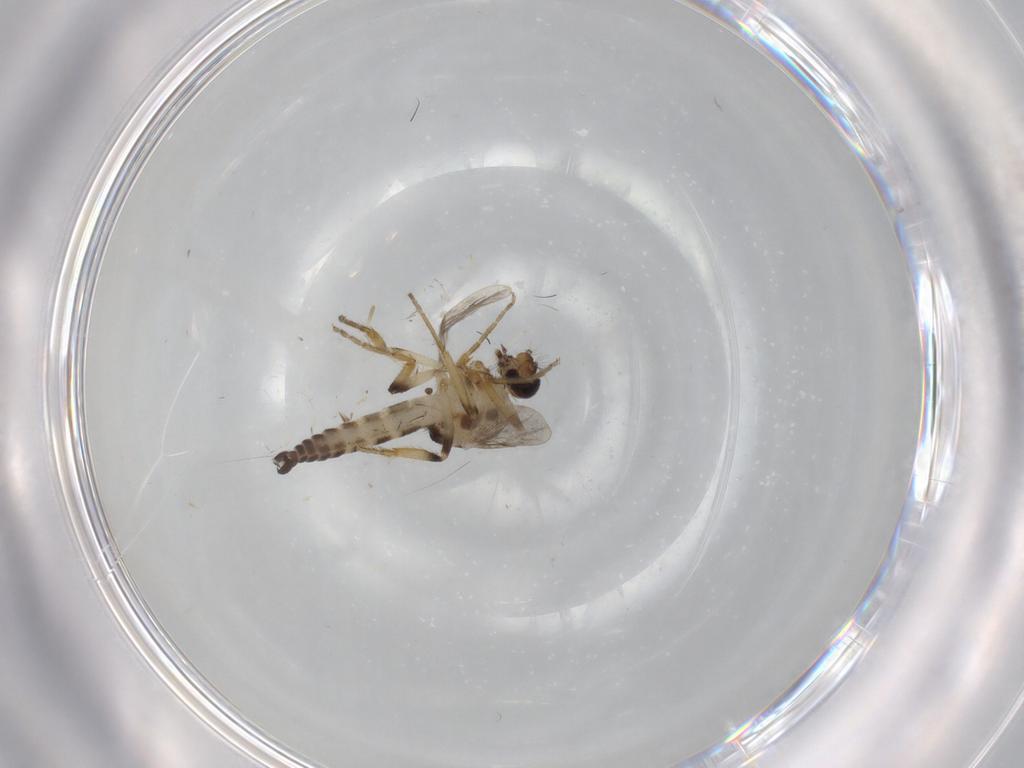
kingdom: Animalia
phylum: Arthropoda
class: Insecta
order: Diptera
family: Ceratopogonidae
